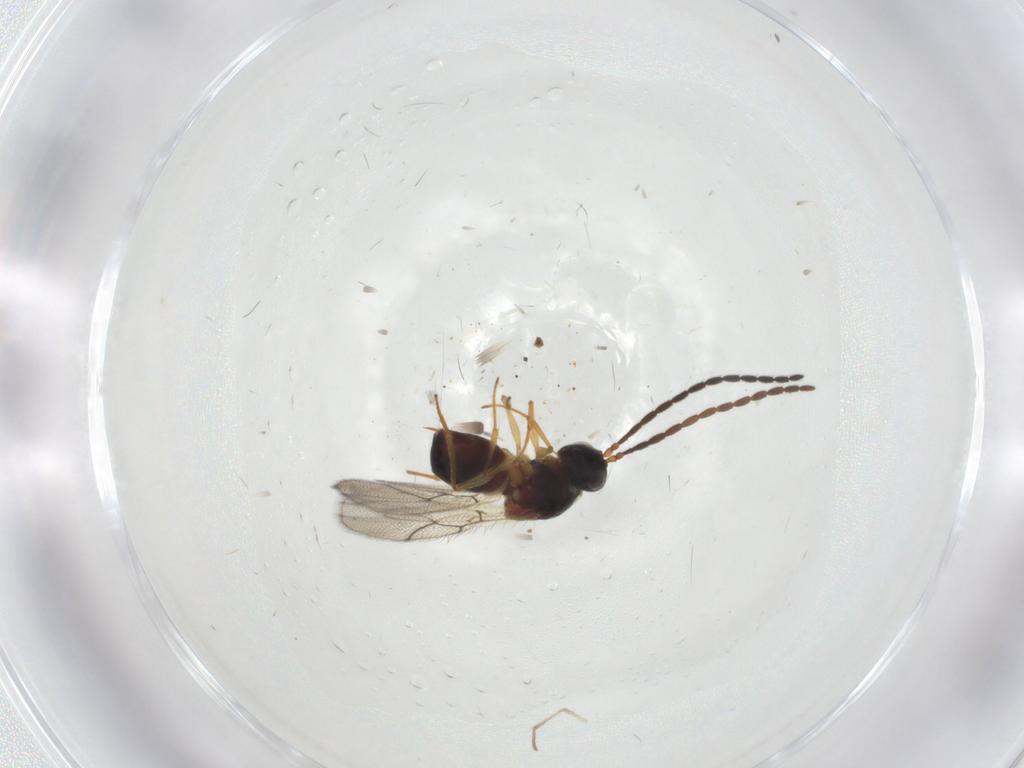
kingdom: Animalia
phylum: Arthropoda
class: Insecta
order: Hymenoptera
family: Figitidae
